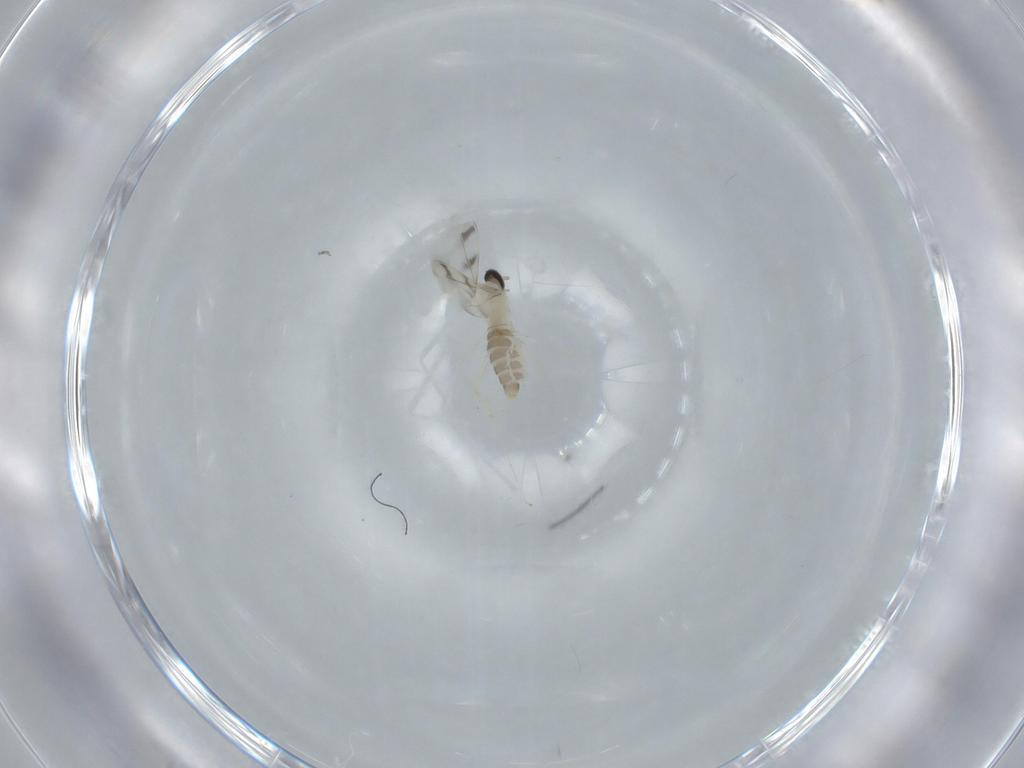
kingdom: Animalia
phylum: Arthropoda
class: Insecta
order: Diptera
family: Cecidomyiidae
